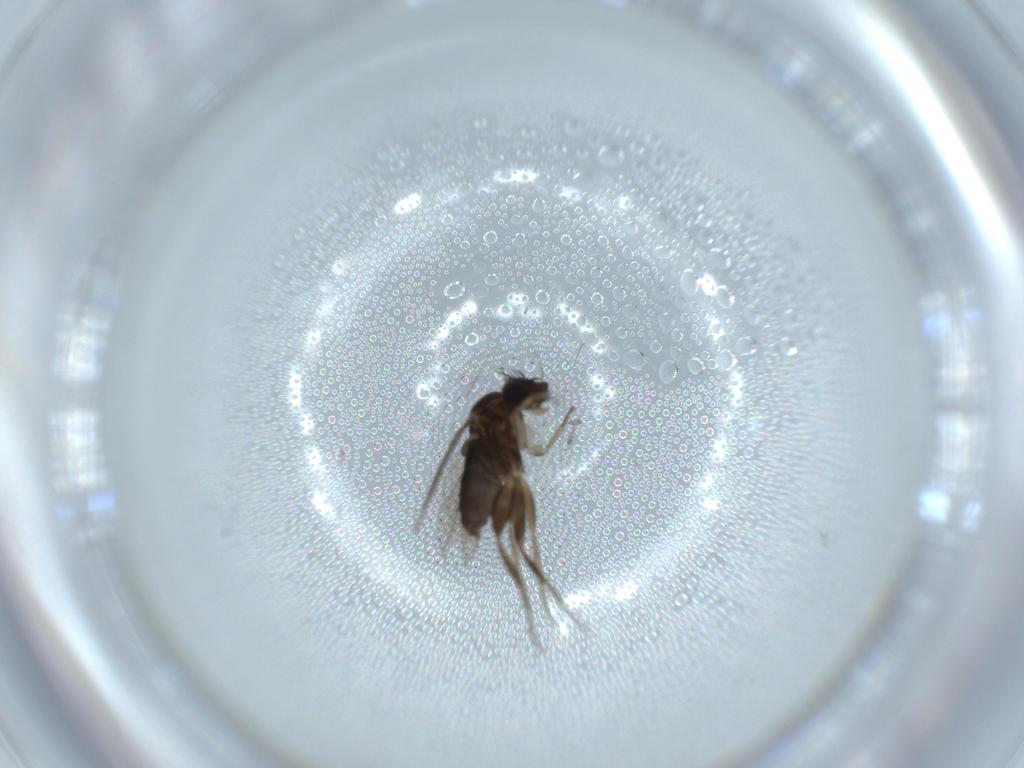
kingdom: Animalia
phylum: Arthropoda
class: Insecta
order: Diptera
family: Phoridae
